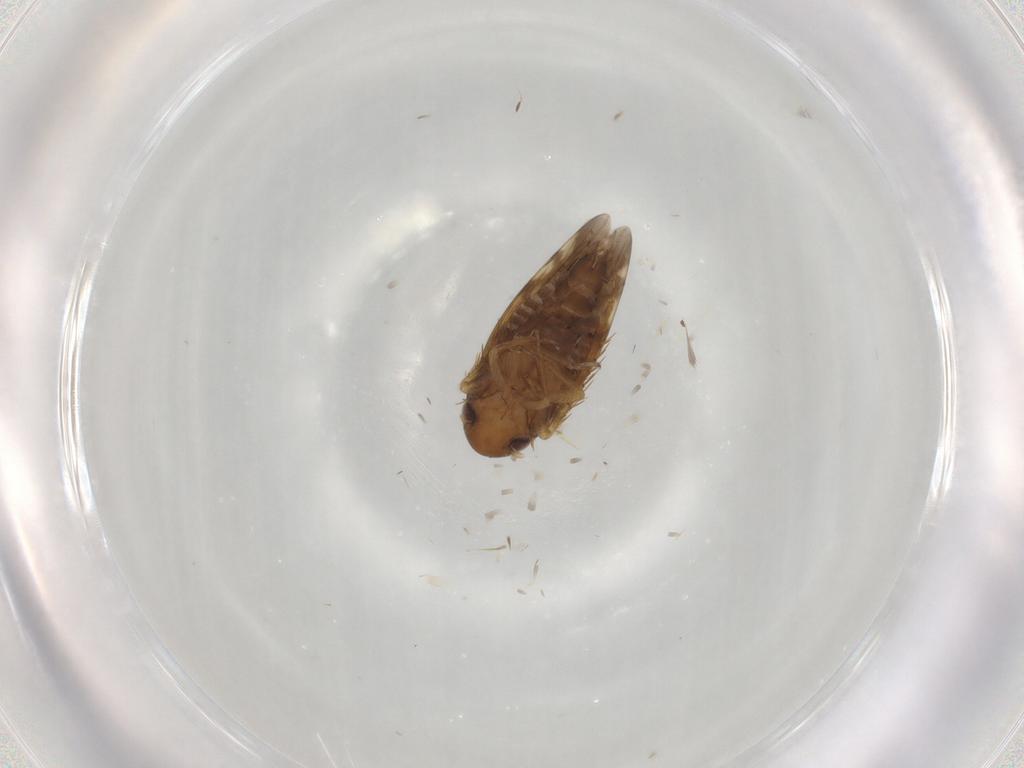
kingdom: Animalia
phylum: Arthropoda
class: Insecta
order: Hemiptera
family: Cicadellidae
